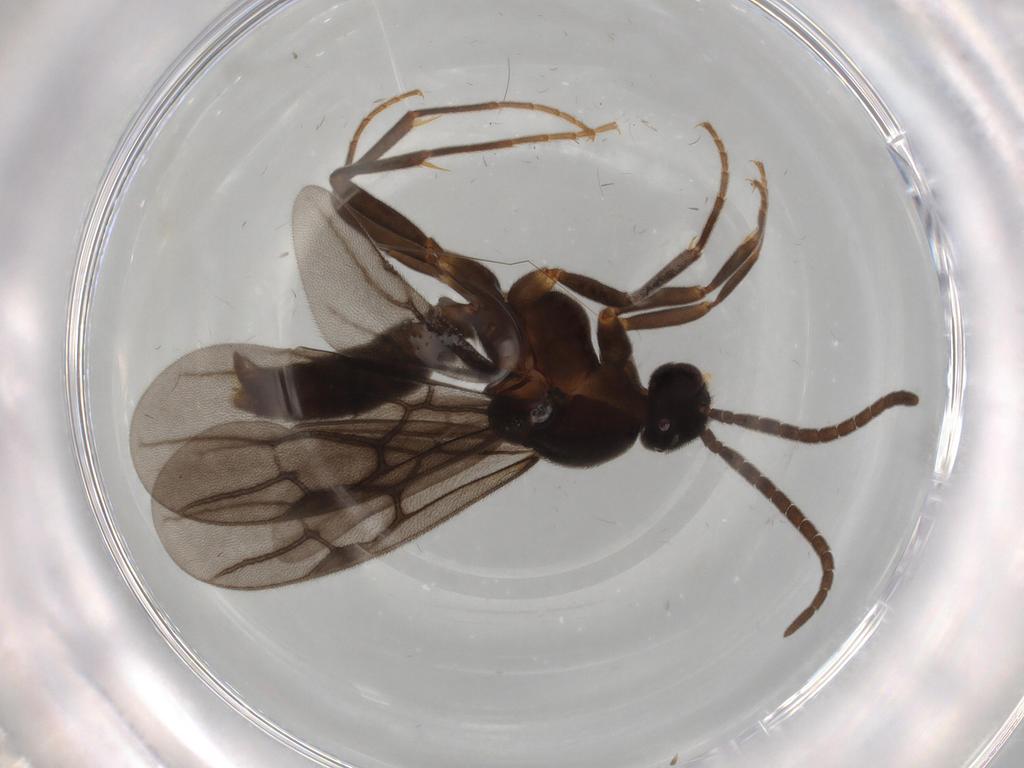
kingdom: Animalia
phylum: Arthropoda
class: Insecta
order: Hymenoptera
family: Formicidae
